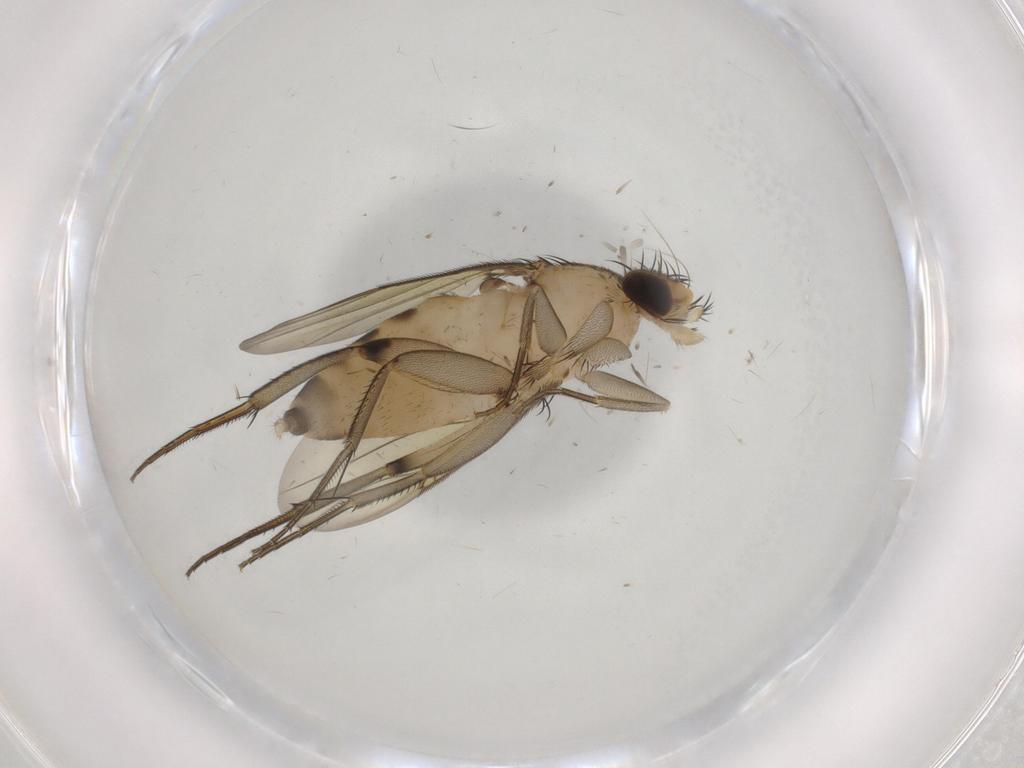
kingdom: Animalia
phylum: Arthropoda
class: Insecta
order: Diptera
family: Phoridae
